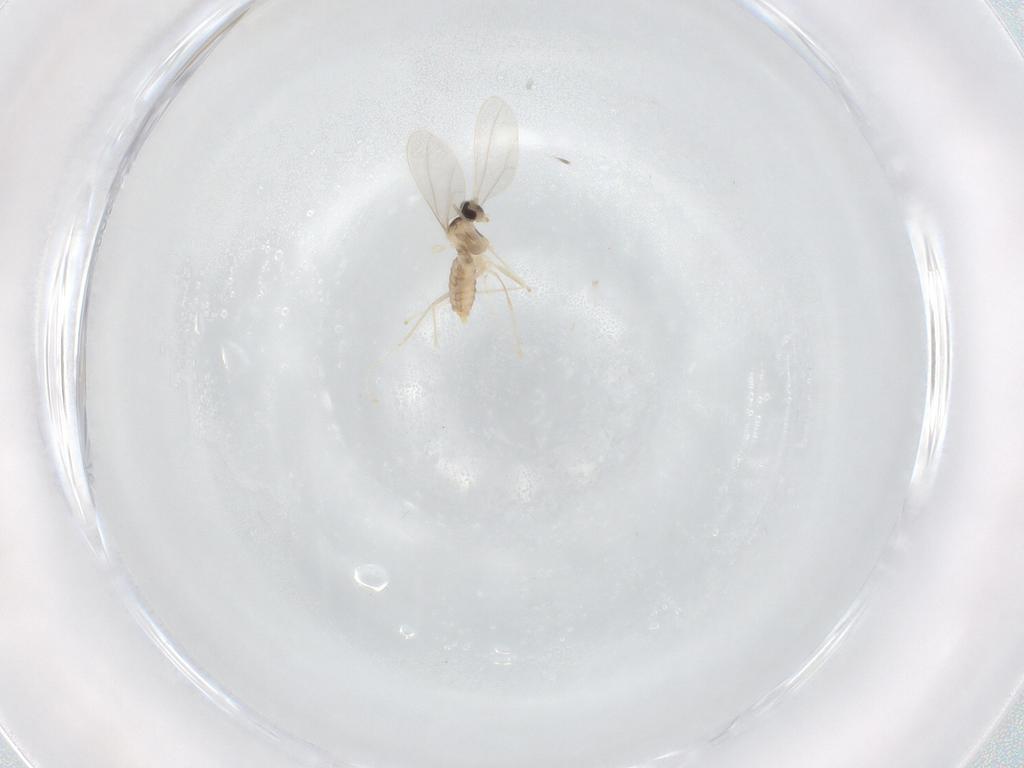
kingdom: Animalia
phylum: Arthropoda
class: Insecta
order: Diptera
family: Cecidomyiidae
